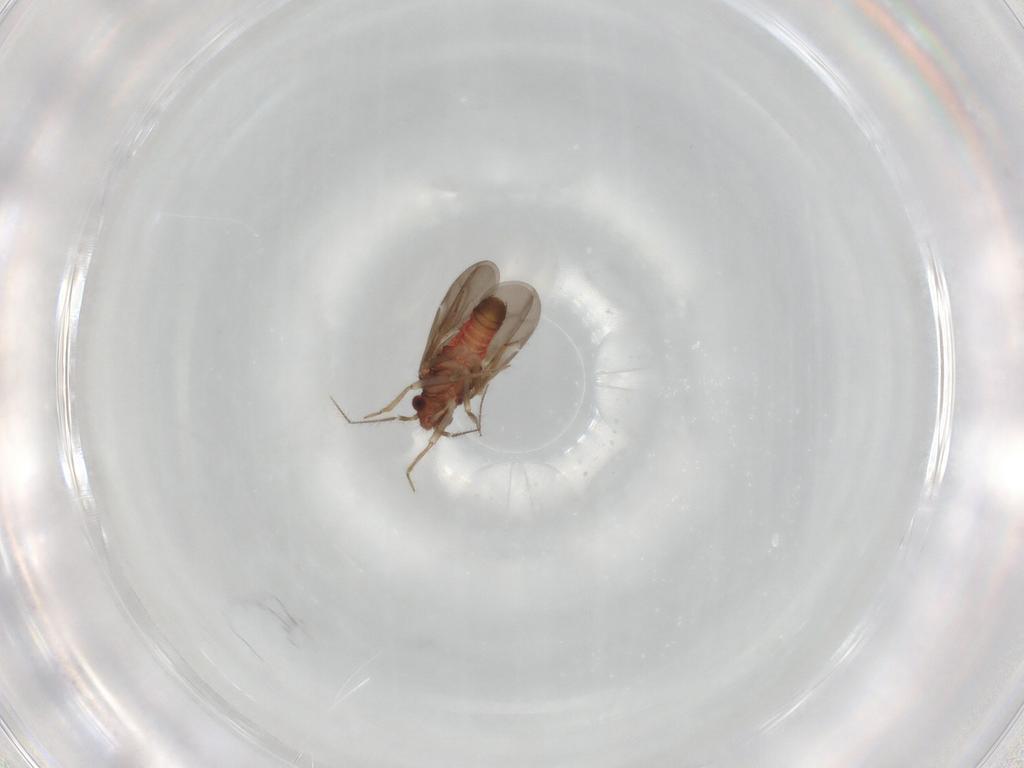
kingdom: Animalia
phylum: Arthropoda
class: Insecta
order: Hemiptera
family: Ceratocombidae
